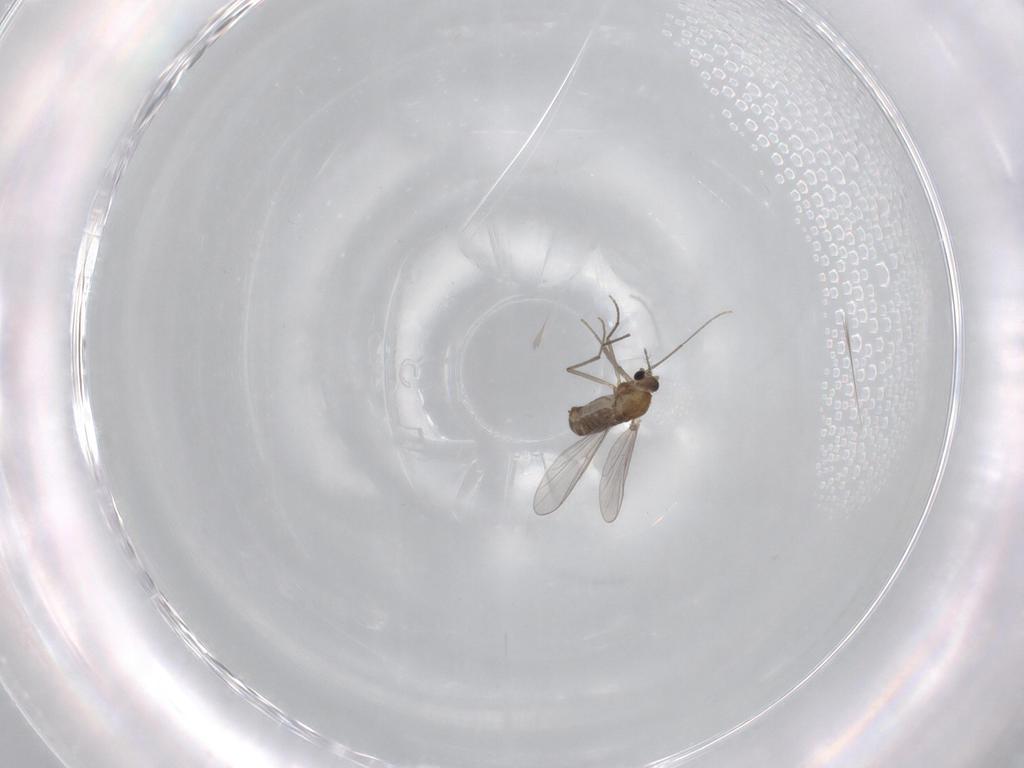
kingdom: Animalia
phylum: Arthropoda
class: Insecta
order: Diptera
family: Chironomidae
